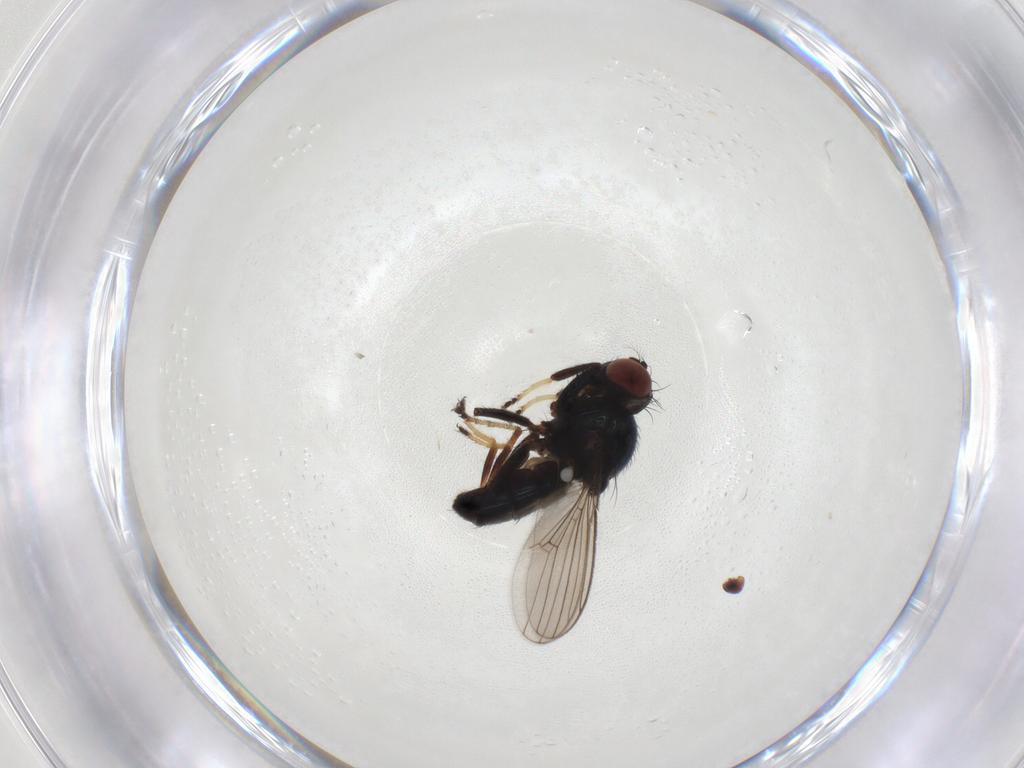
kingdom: Animalia
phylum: Arthropoda
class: Insecta
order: Diptera
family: Ephydridae
